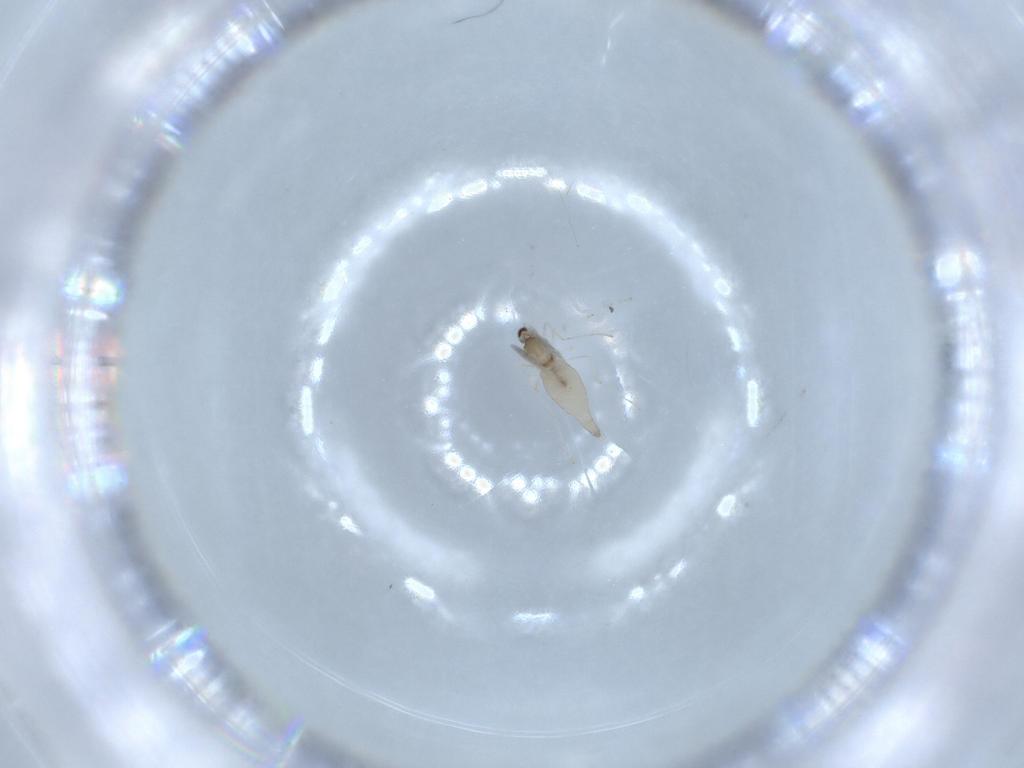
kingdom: Animalia
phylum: Arthropoda
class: Insecta
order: Diptera
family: Cecidomyiidae
